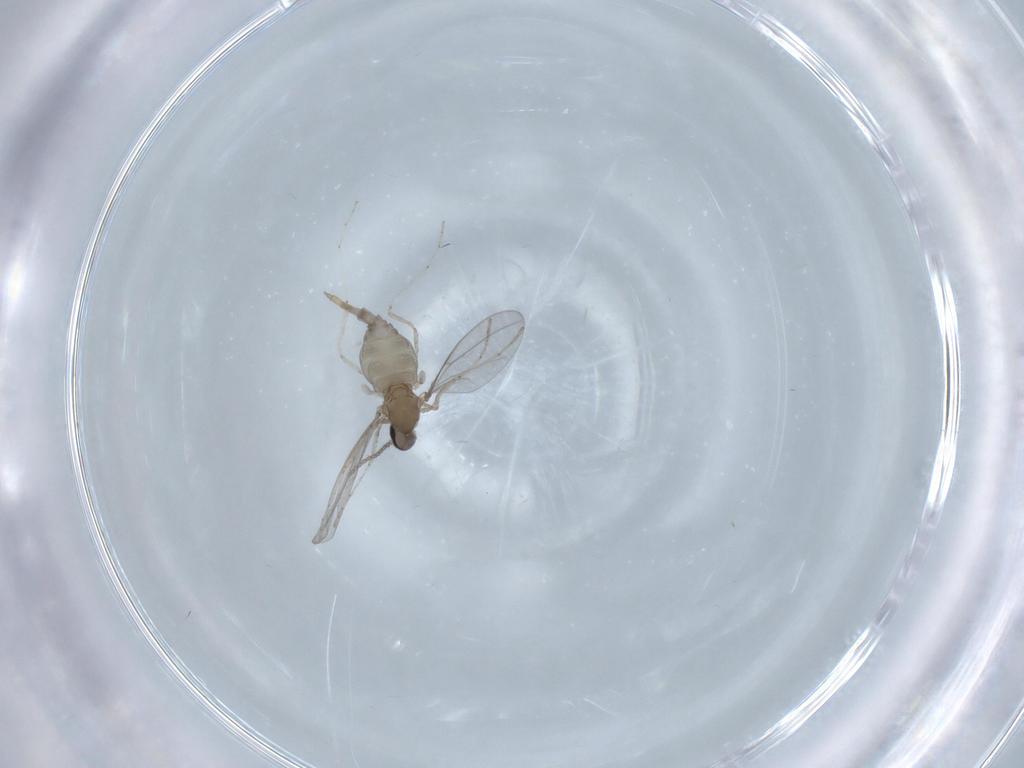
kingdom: Animalia
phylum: Arthropoda
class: Insecta
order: Diptera
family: Cecidomyiidae
